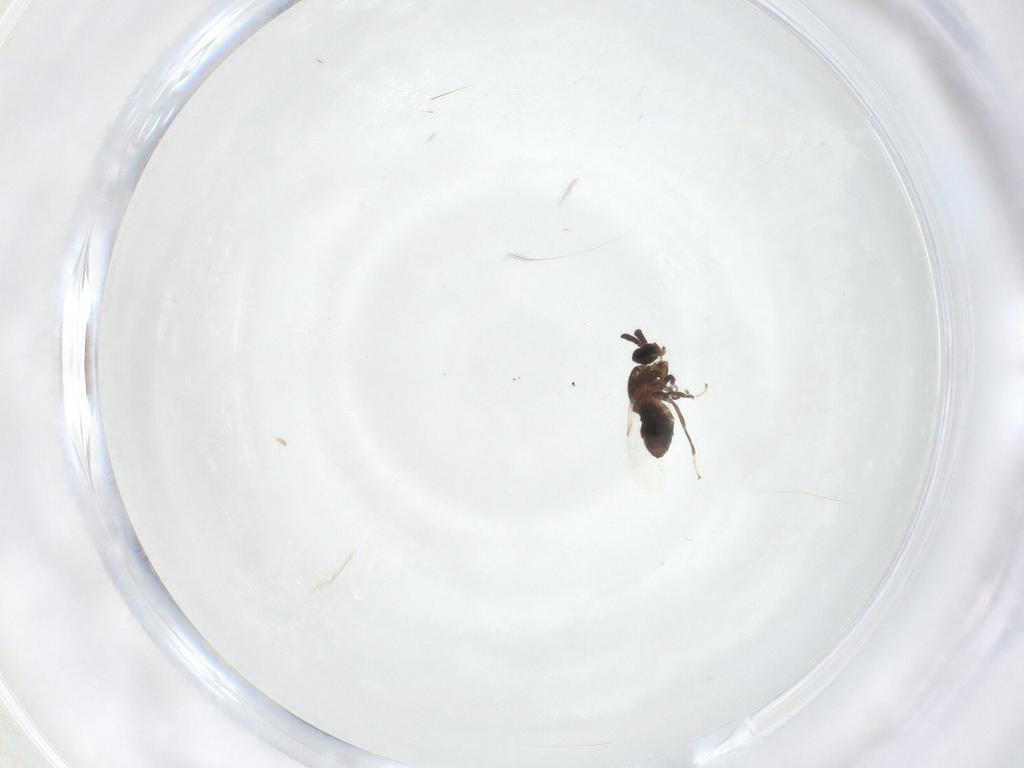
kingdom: Animalia
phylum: Arthropoda
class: Insecta
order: Diptera
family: Scatopsidae
